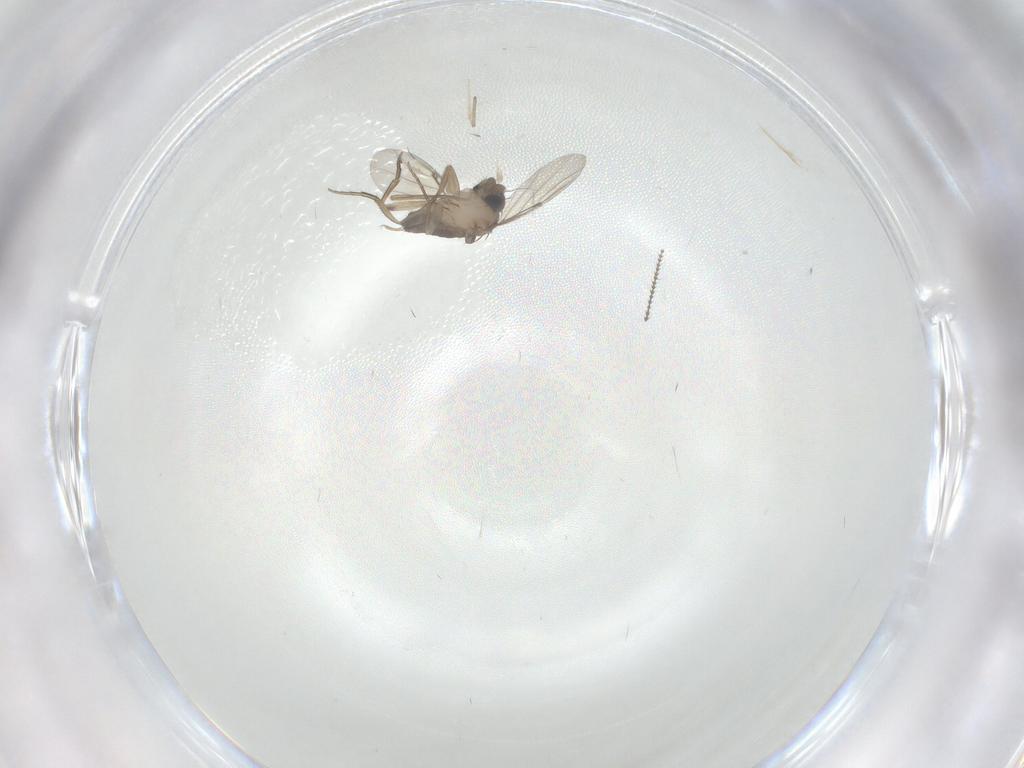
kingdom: Animalia
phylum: Arthropoda
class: Insecta
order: Diptera
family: Phoridae
